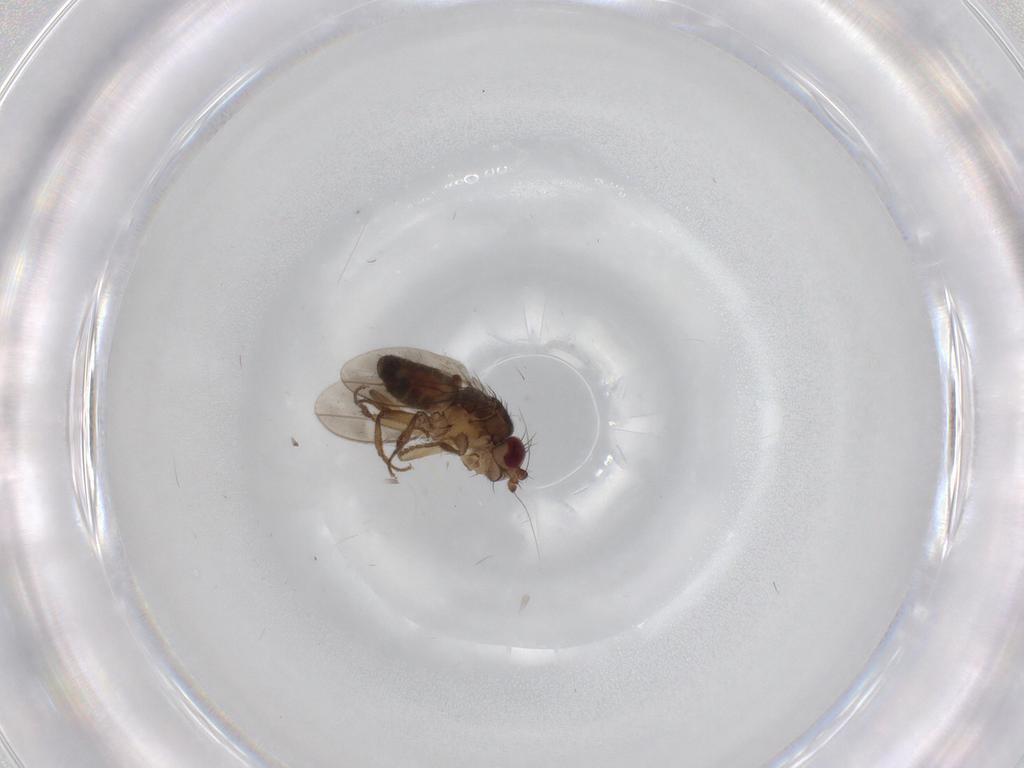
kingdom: Animalia
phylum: Arthropoda
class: Insecta
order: Diptera
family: Sphaeroceridae
